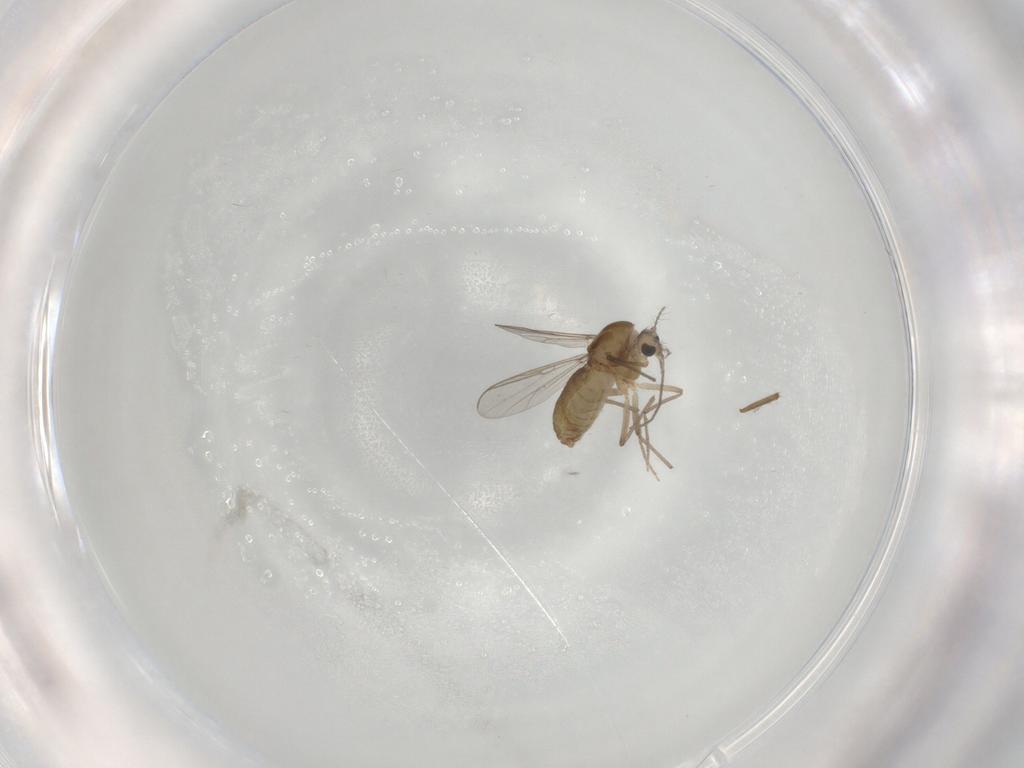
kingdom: Animalia
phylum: Arthropoda
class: Insecta
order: Diptera
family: Chironomidae
